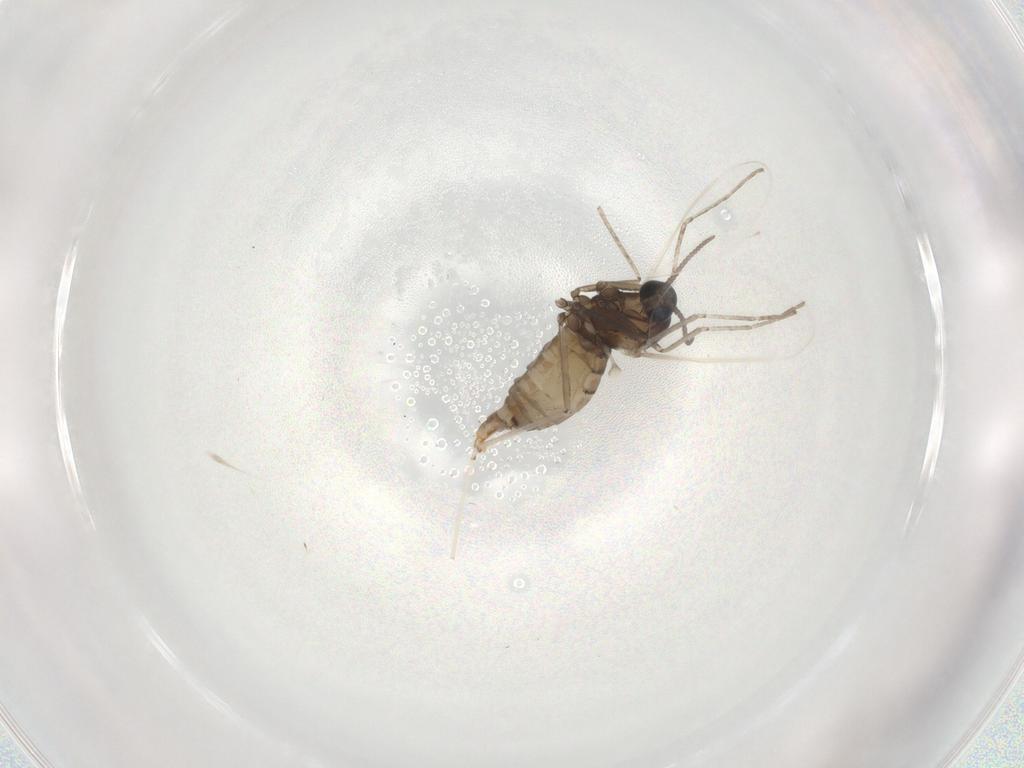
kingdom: Animalia
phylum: Arthropoda
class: Insecta
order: Diptera
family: Cecidomyiidae
